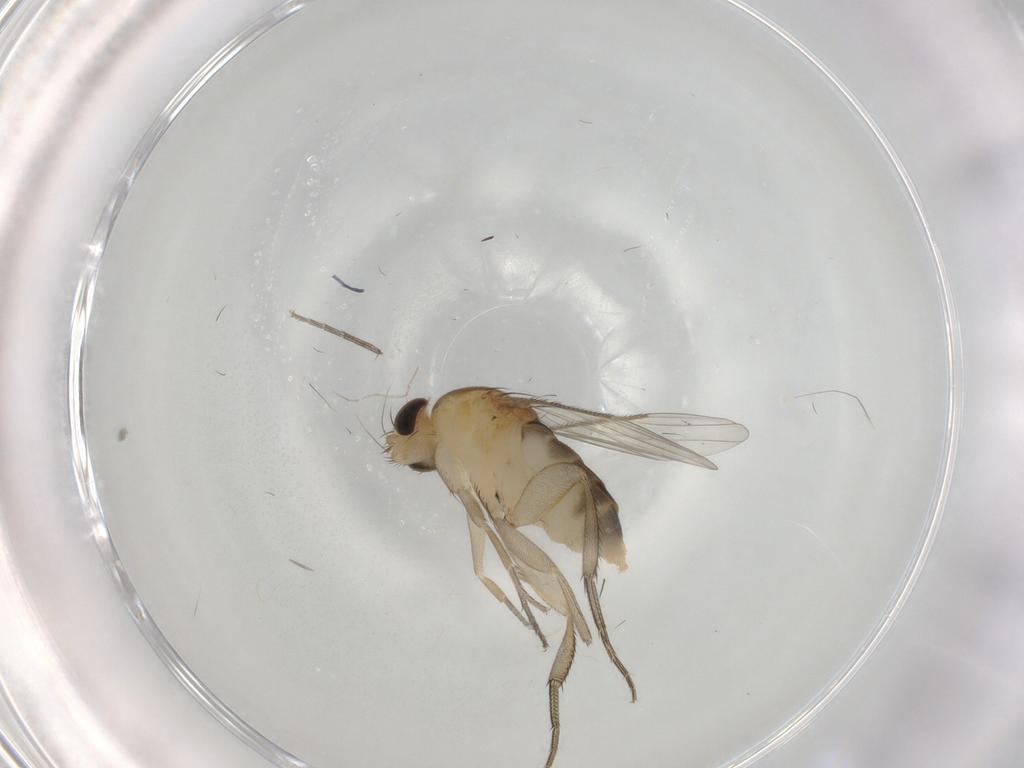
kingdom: Animalia
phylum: Arthropoda
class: Insecta
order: Diptera
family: Phoridae
